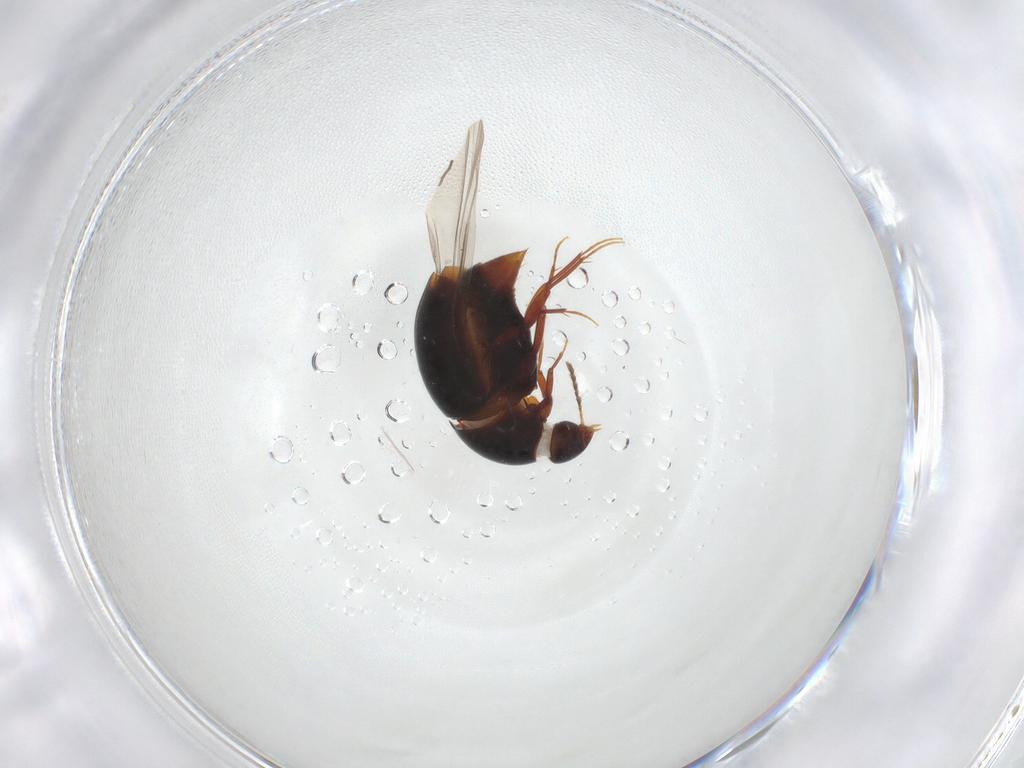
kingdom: Animalia
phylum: Arthropoda
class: Insecta
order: Coleoptera
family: Staphylinidae
